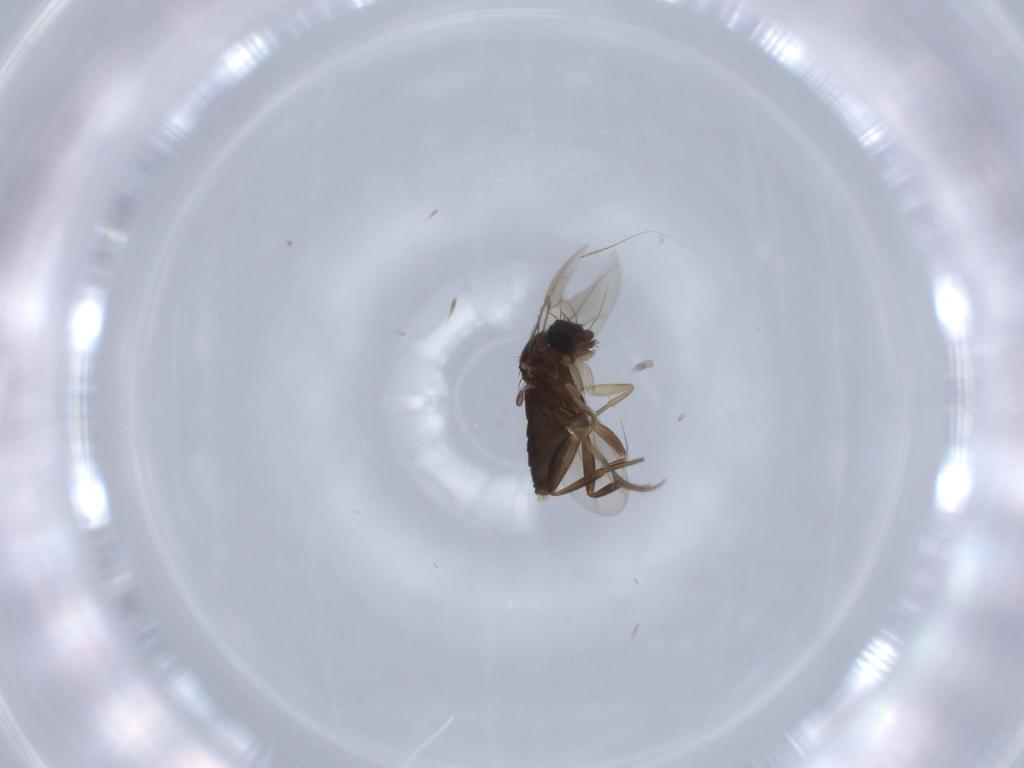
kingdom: Animalia
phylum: Arthropoda
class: Insecta
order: Diptera
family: Phoridae
